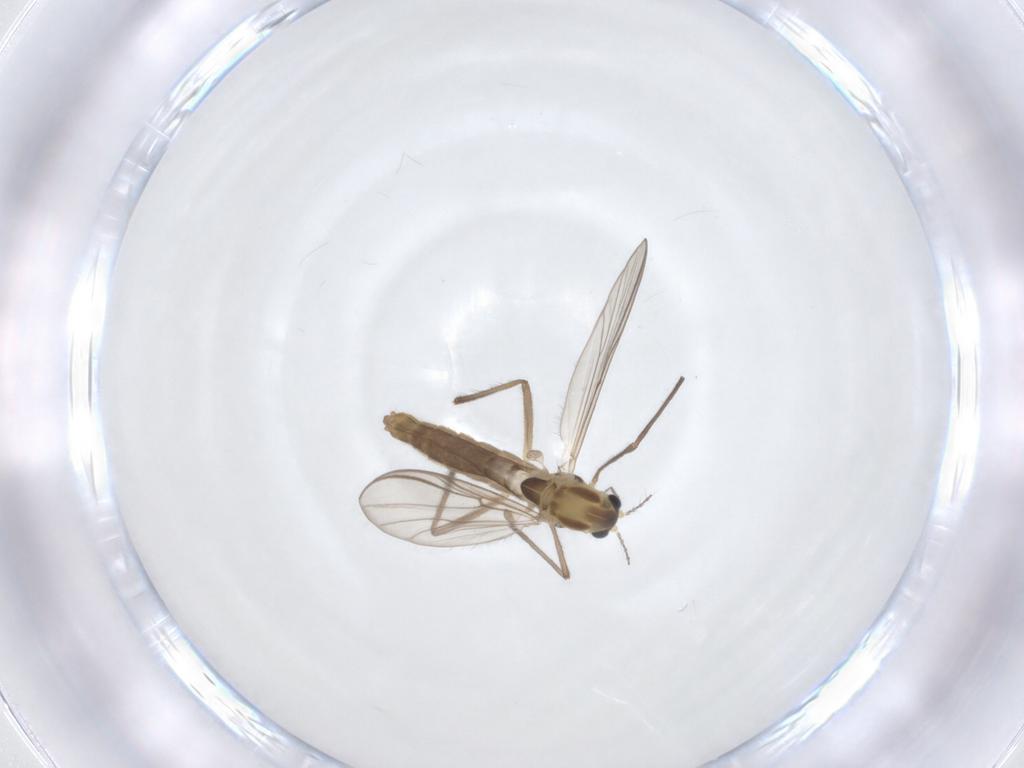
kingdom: Animalia
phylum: Arthropoda
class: Insecta
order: Diptera
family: Chironomidae
